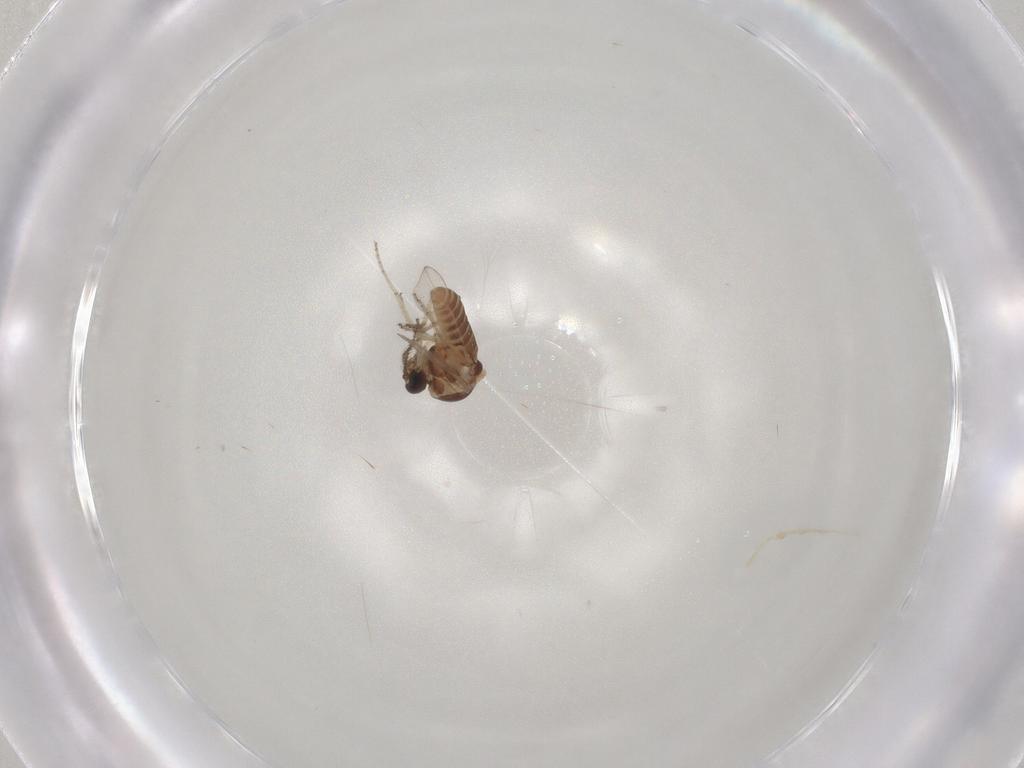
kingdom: Animalia
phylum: Arthropoda
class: Insecta
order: Diptera
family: Ceratopogonidae
